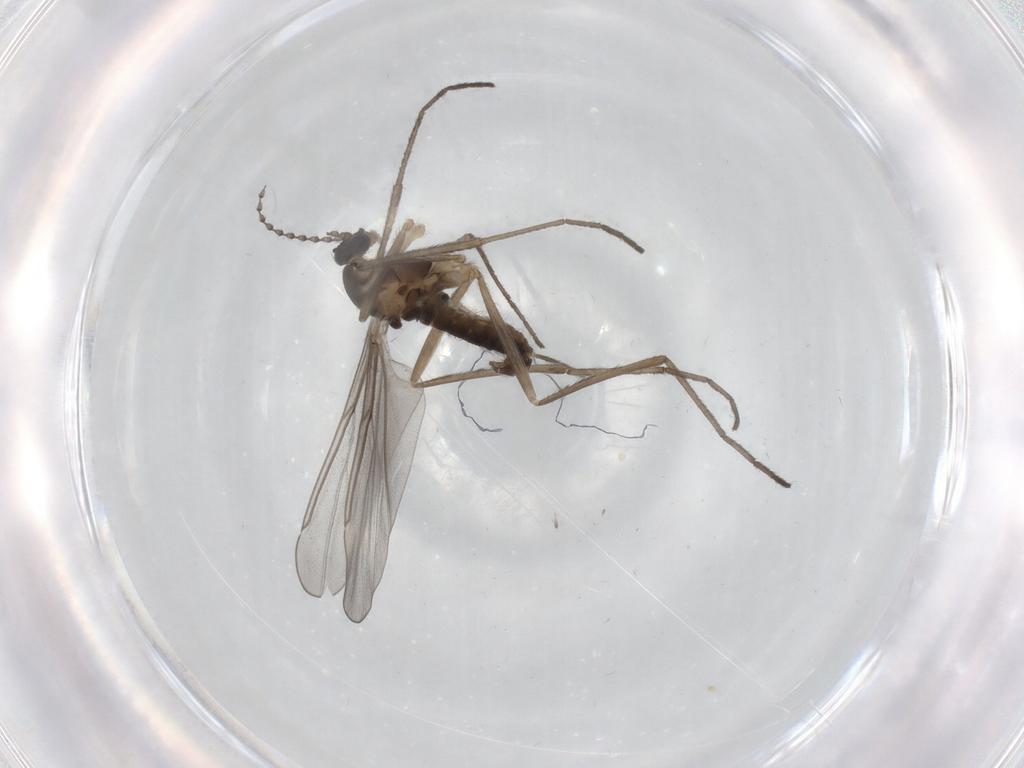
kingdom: Animalia
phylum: Arthropoda
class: Insecta
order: Diptera
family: Cecidomyiidae
